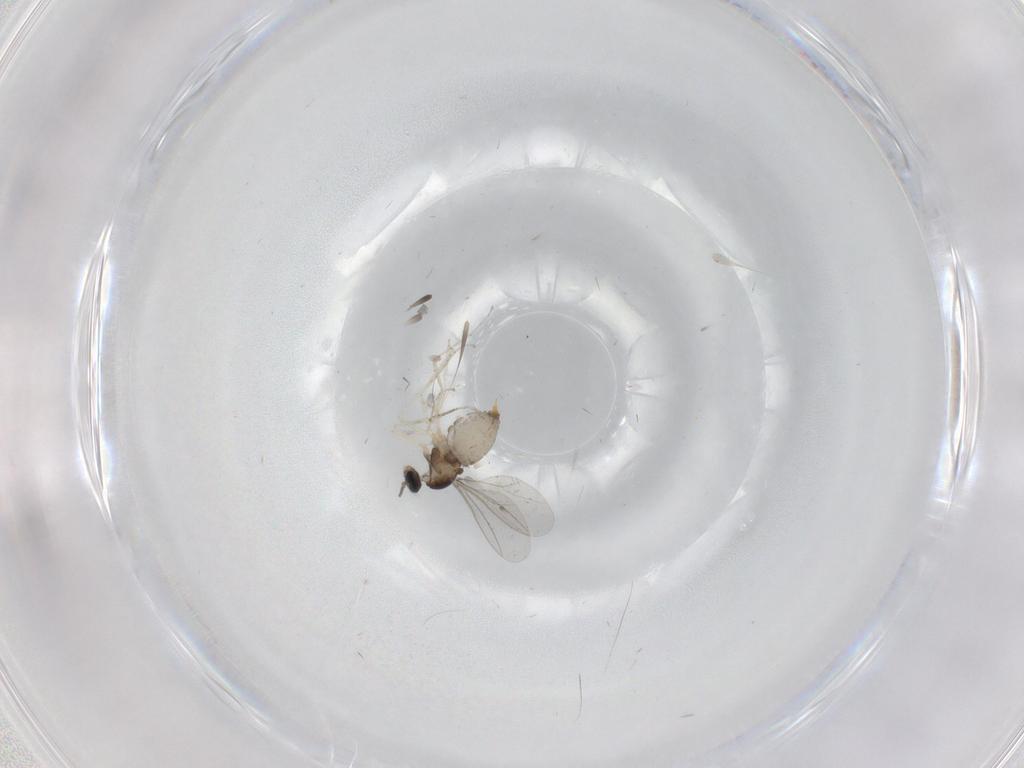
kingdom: Animalia
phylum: Arthropoda
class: Insecta
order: Diptera
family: Cecidomyiidae
